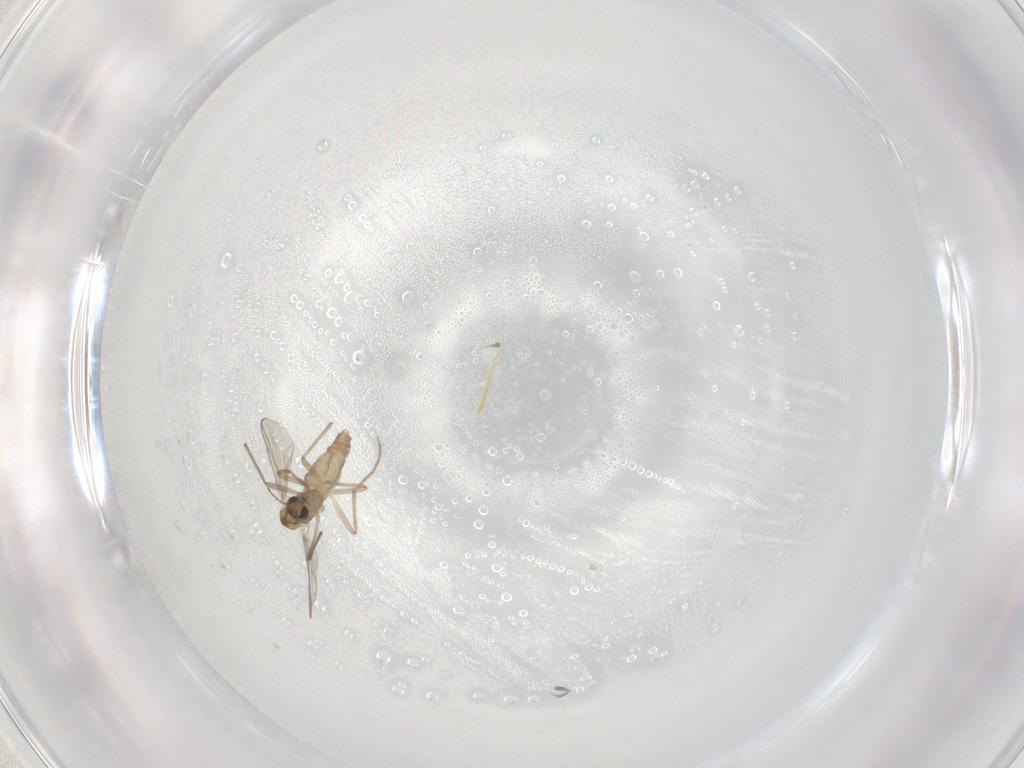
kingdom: Animalia
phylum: Arthropoda
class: Insecta
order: Diptera
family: Chironomidae
